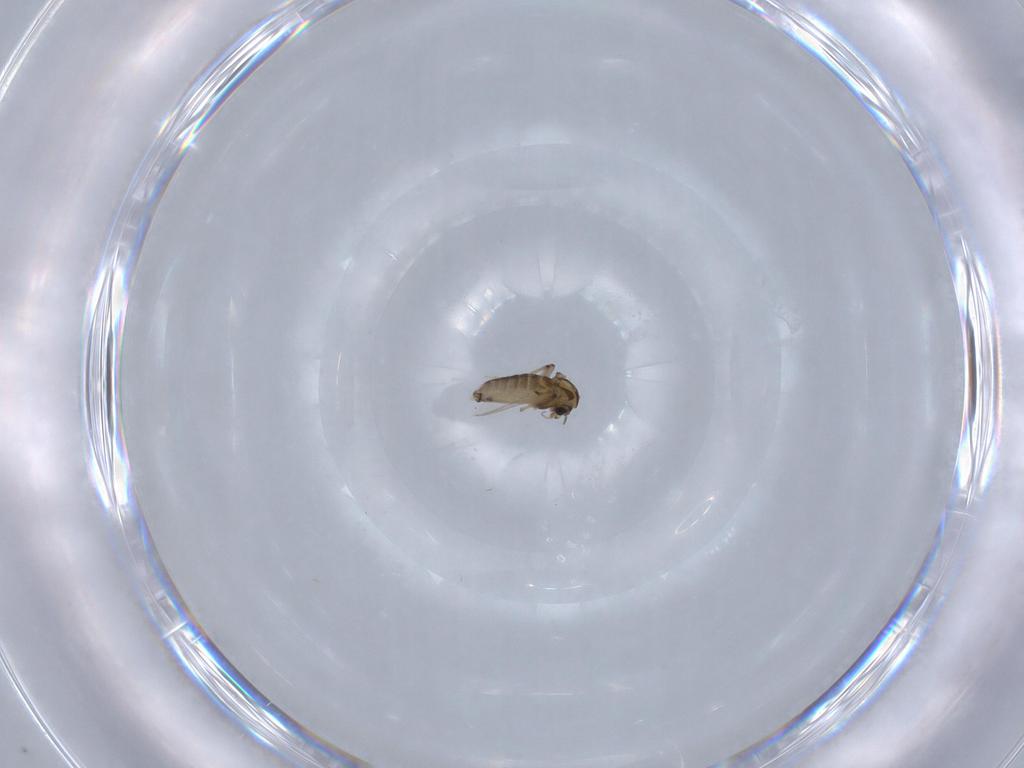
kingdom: Animalia
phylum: Arthropoda
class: Insecta
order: Diptera
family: Chironomidae
